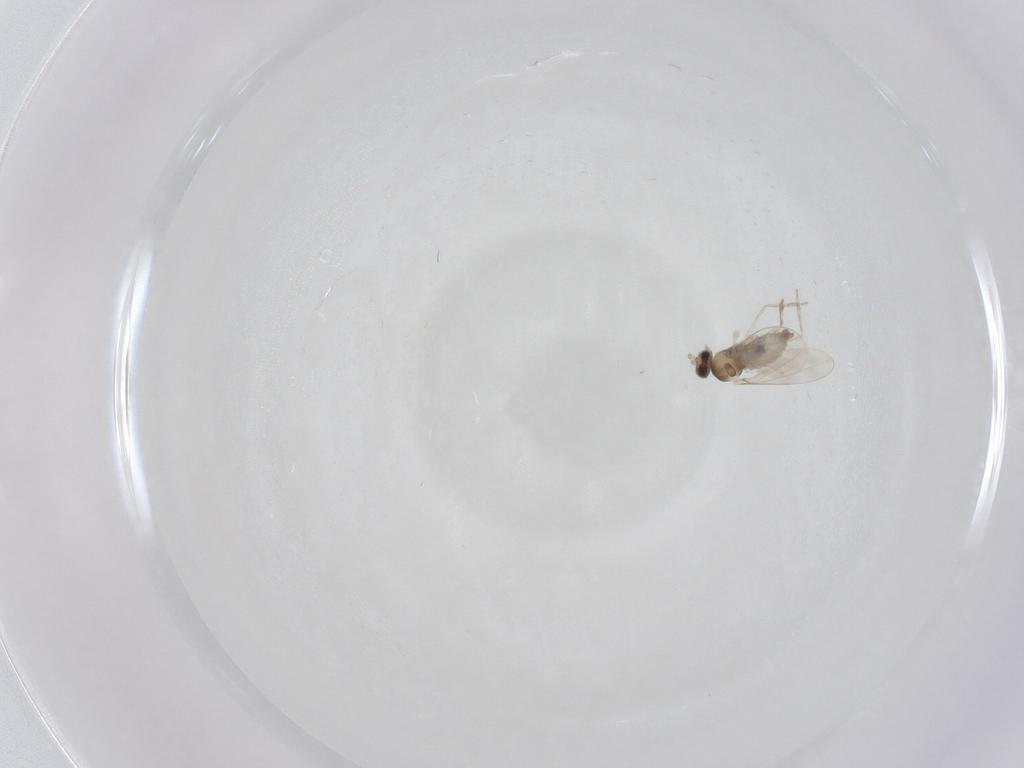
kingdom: Animalia
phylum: Arthropoda
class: Insecta
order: Diptera
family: Cecidomyiidae
